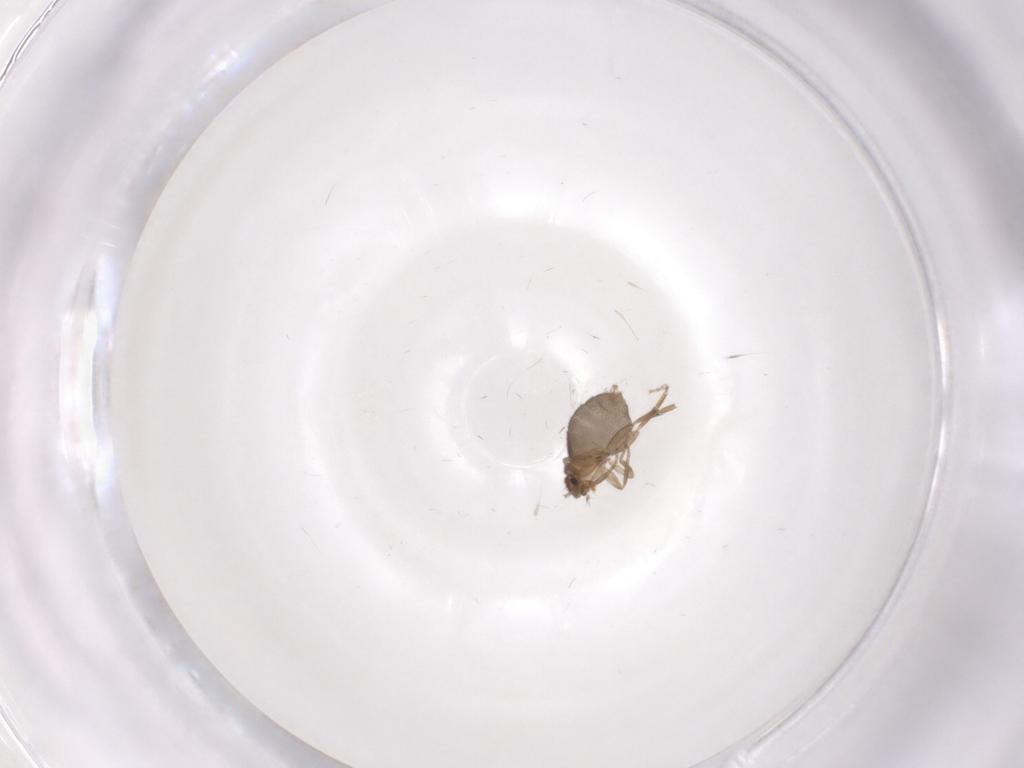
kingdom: Animalia
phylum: Arthropoda
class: Insecta
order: Diptera
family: Phoridae
